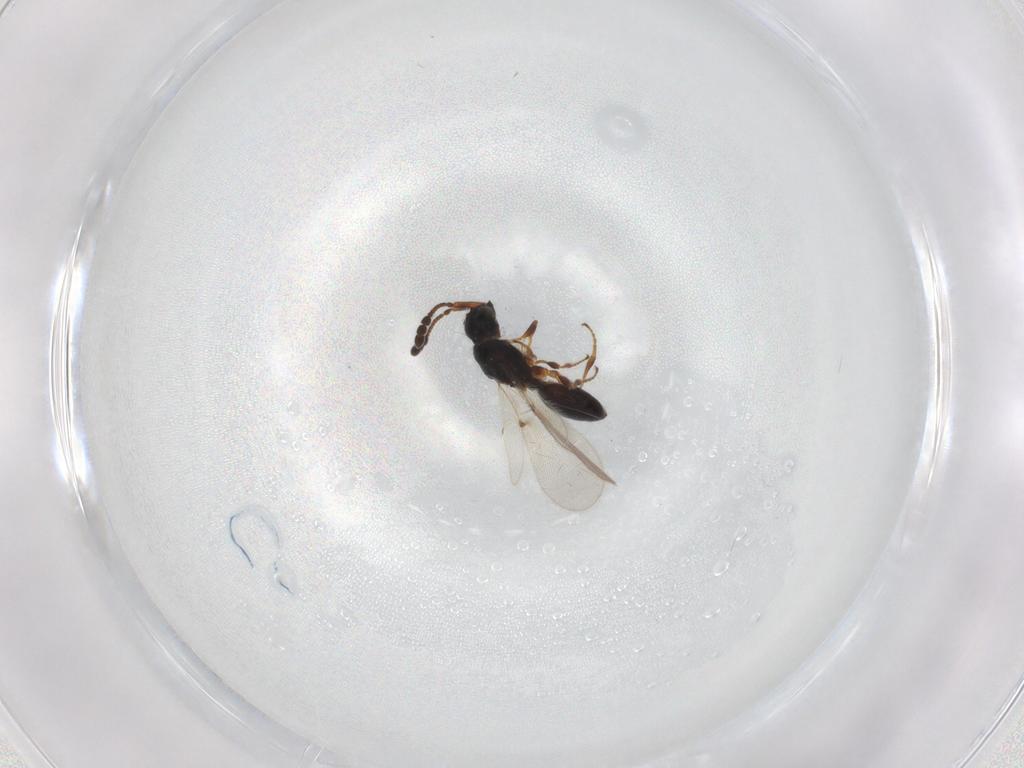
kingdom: Animalia
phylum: Arthropoda
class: Insecta
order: Hymenoptera
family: Diapriidae
